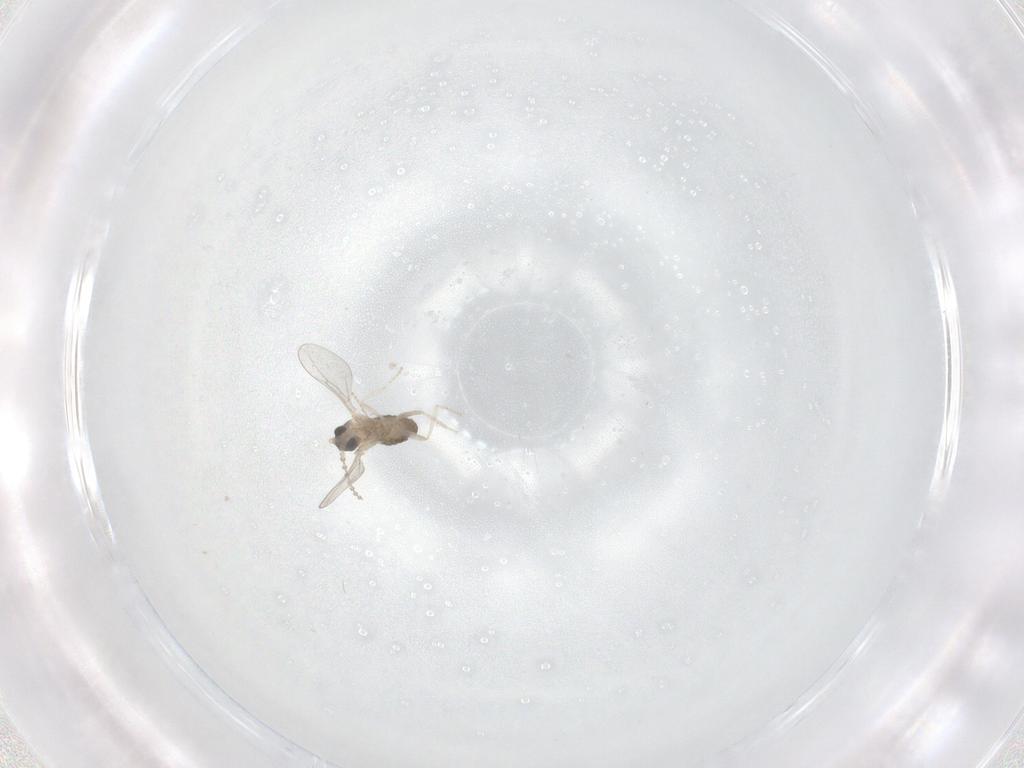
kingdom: Animalia
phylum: Arthropoda
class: Insecta
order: Diptera
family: Cecidomyiidae
